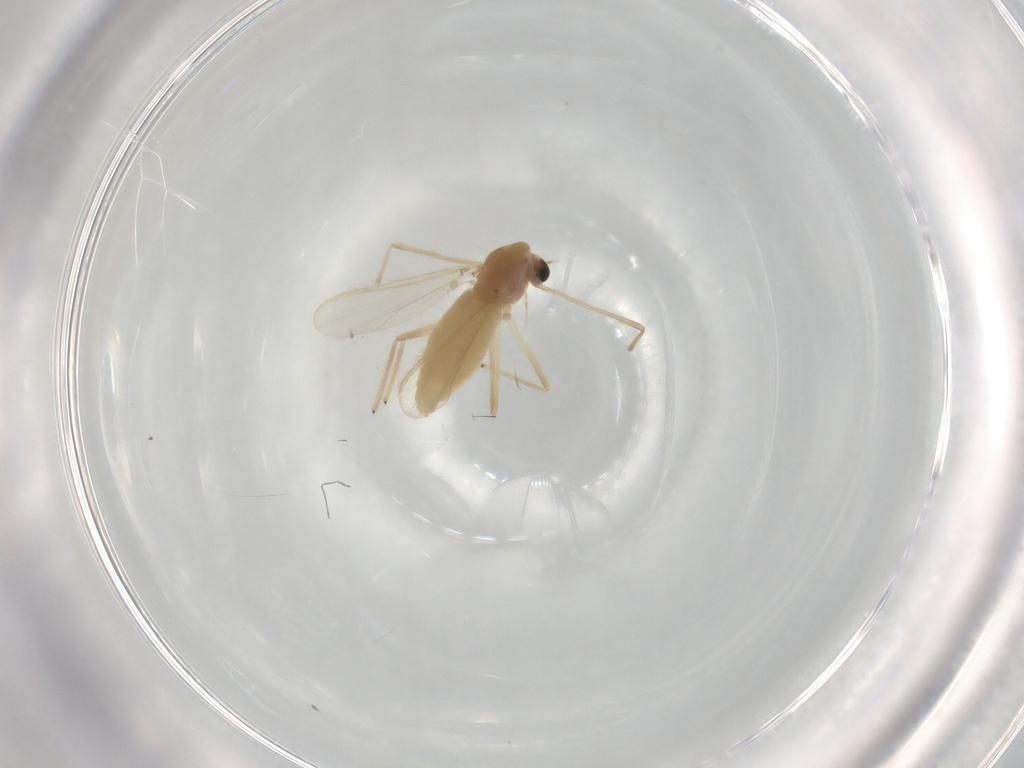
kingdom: Animalia
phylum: Arthropoda
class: Insecta
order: Diptera
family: Chironomidae
